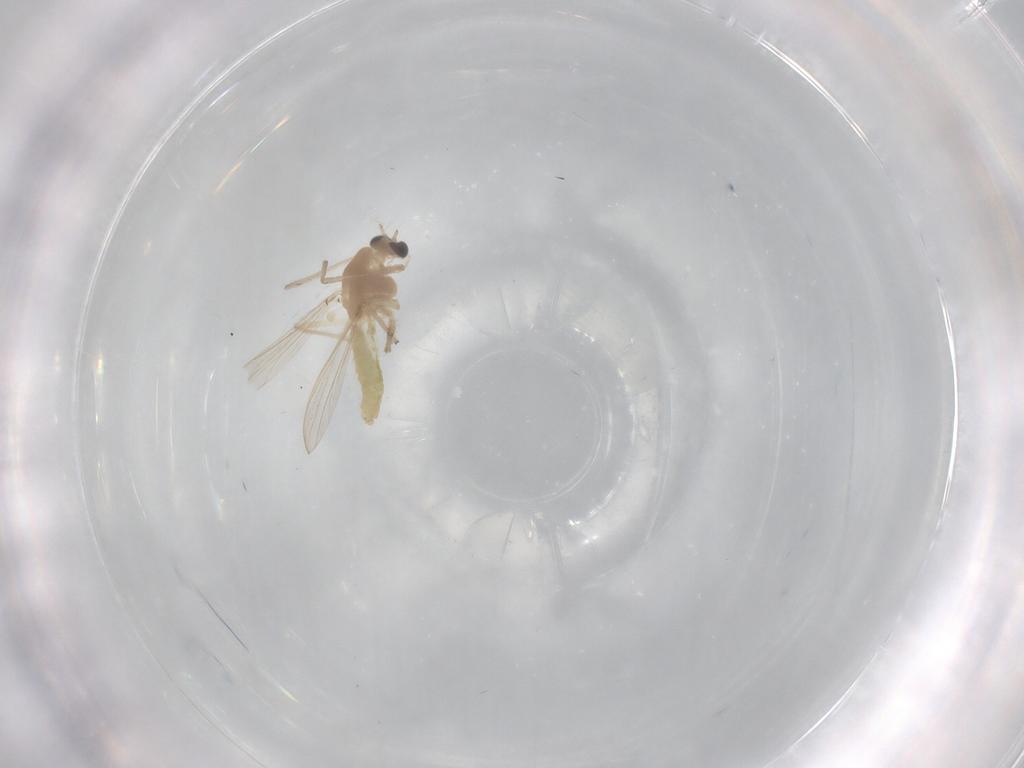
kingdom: Animalia
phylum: Arthropoda
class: Insecta
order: Diptera
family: Chironomidae
